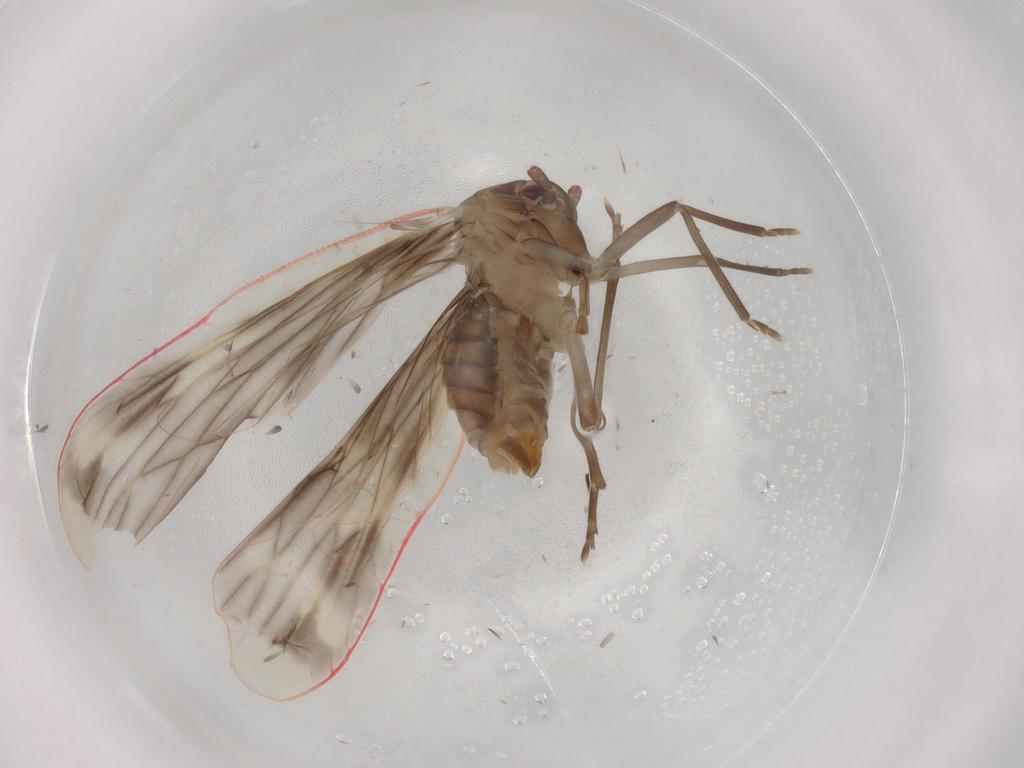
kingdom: Animalia
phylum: Arthropoda
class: Insecta
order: Hemiptera
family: Derbidae
